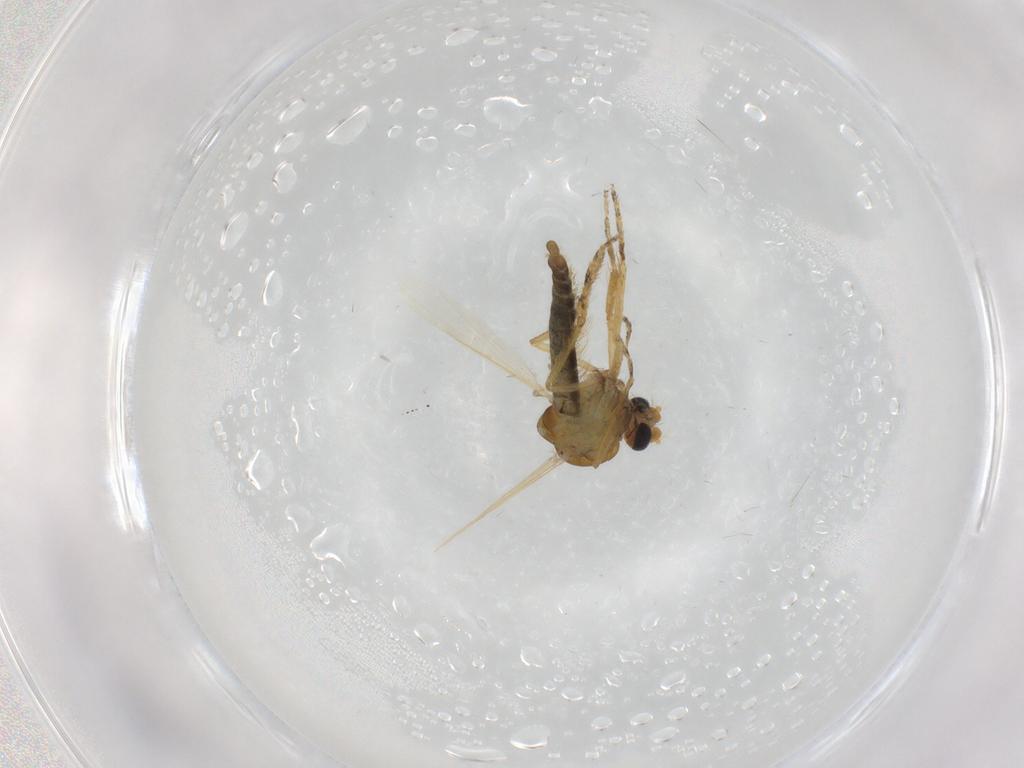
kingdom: Animalia
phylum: Arthropoda
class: Insecta
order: Diptera
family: Ceratopogonidae
